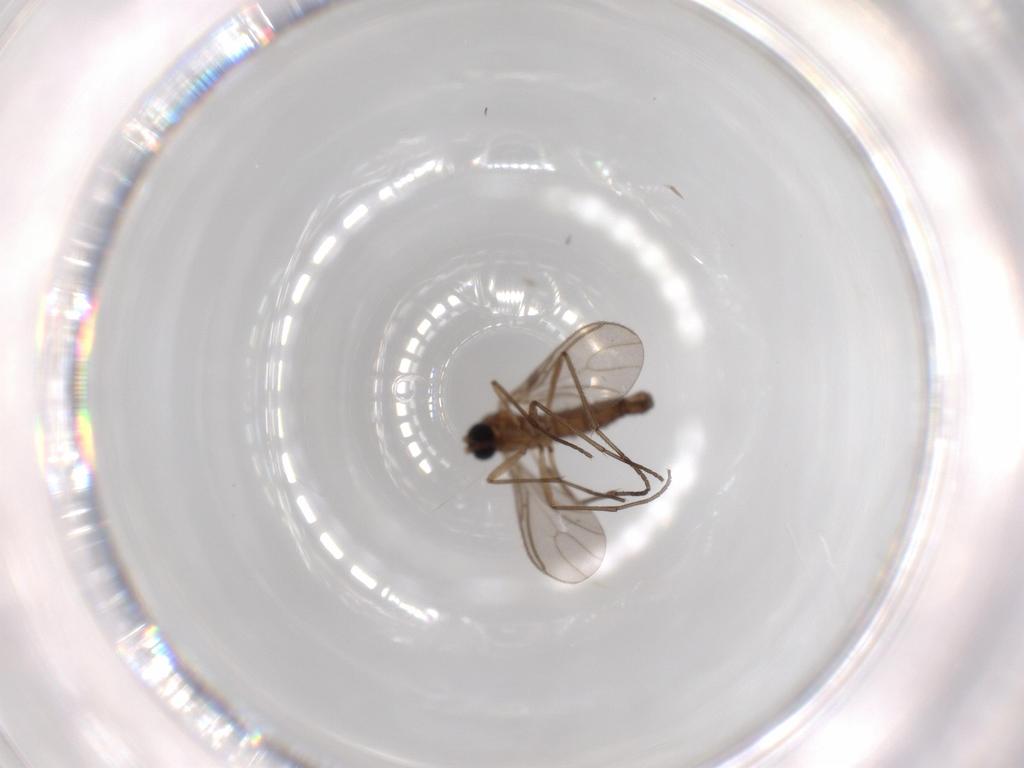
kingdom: Animalia
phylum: Arthropoda
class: Insecta
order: Diptera
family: Sciaridae
